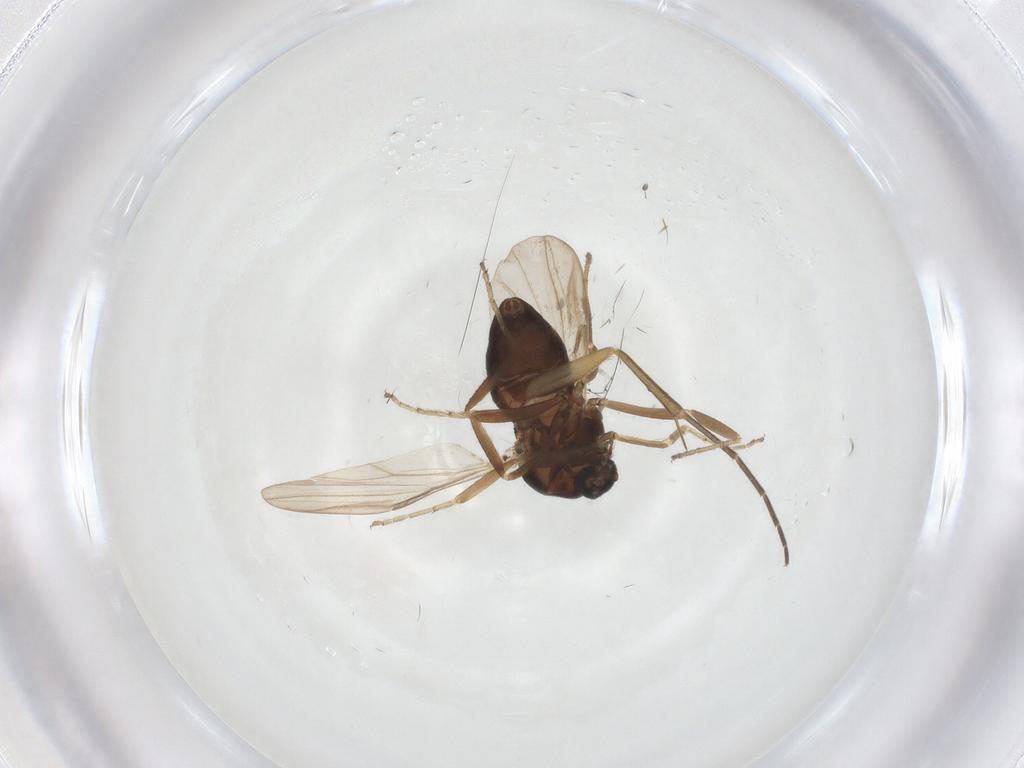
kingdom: Animalia
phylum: Arthropoda
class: Insecta
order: Diptera
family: Ceratopogonidae
